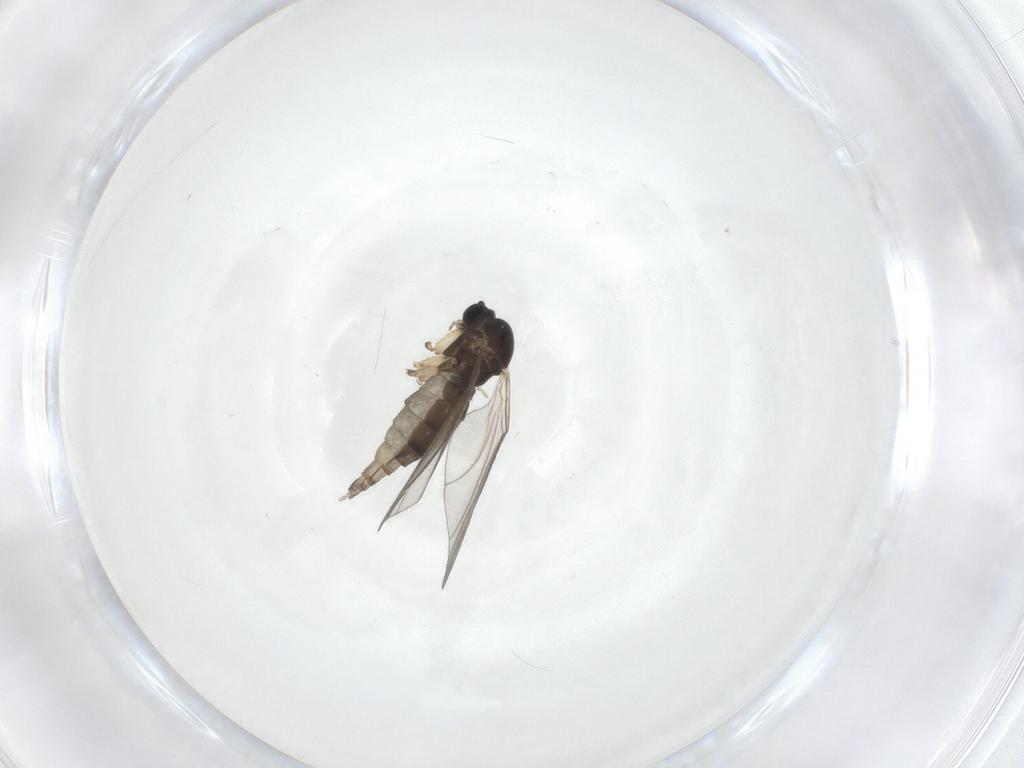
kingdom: Animalia
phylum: Arthropoda
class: Insecta
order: Diptera
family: Sciaridae
